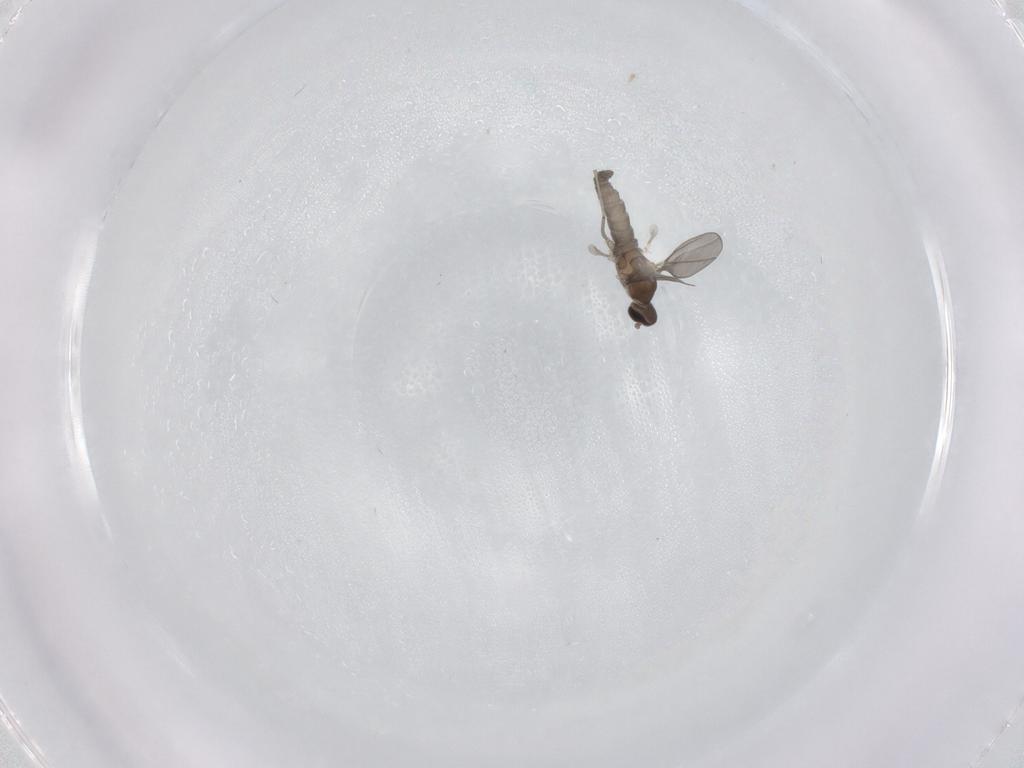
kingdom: Animalia
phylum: Arthropoda
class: Insecta
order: Diptera
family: Cecidomyiidae
